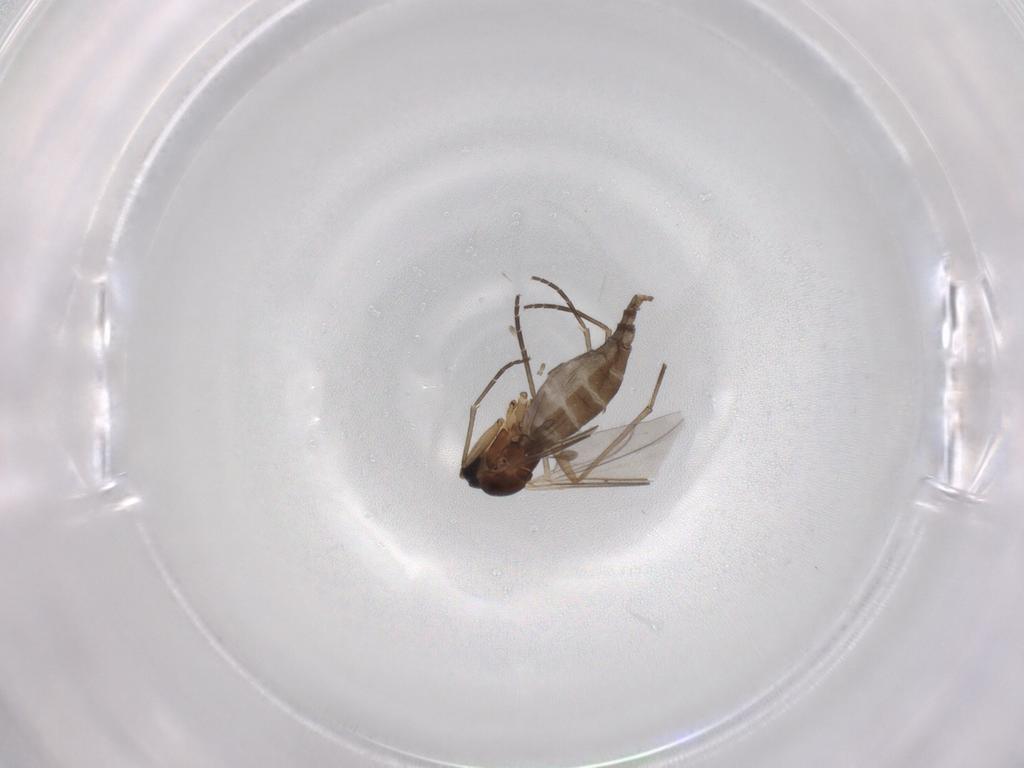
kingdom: Animalia
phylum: Arthropoda
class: Insecta
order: Diptera
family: Sciaridae
